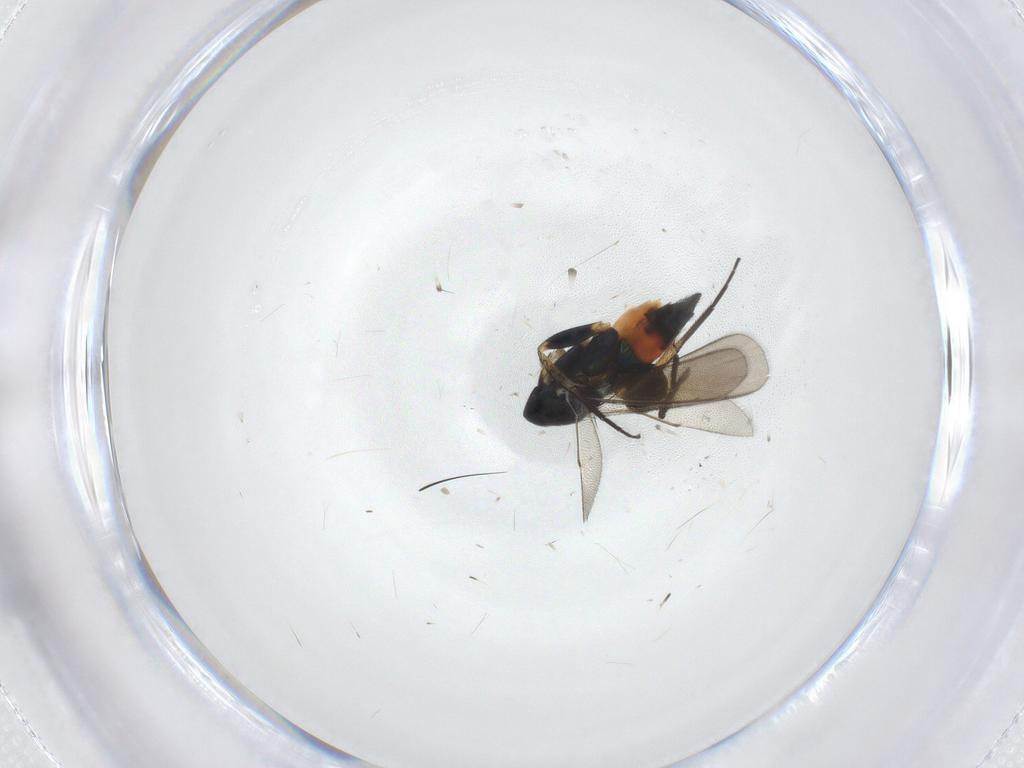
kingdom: Animalia
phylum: Arthropoda
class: Insecta
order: Hymenoptera
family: Eulophidae
